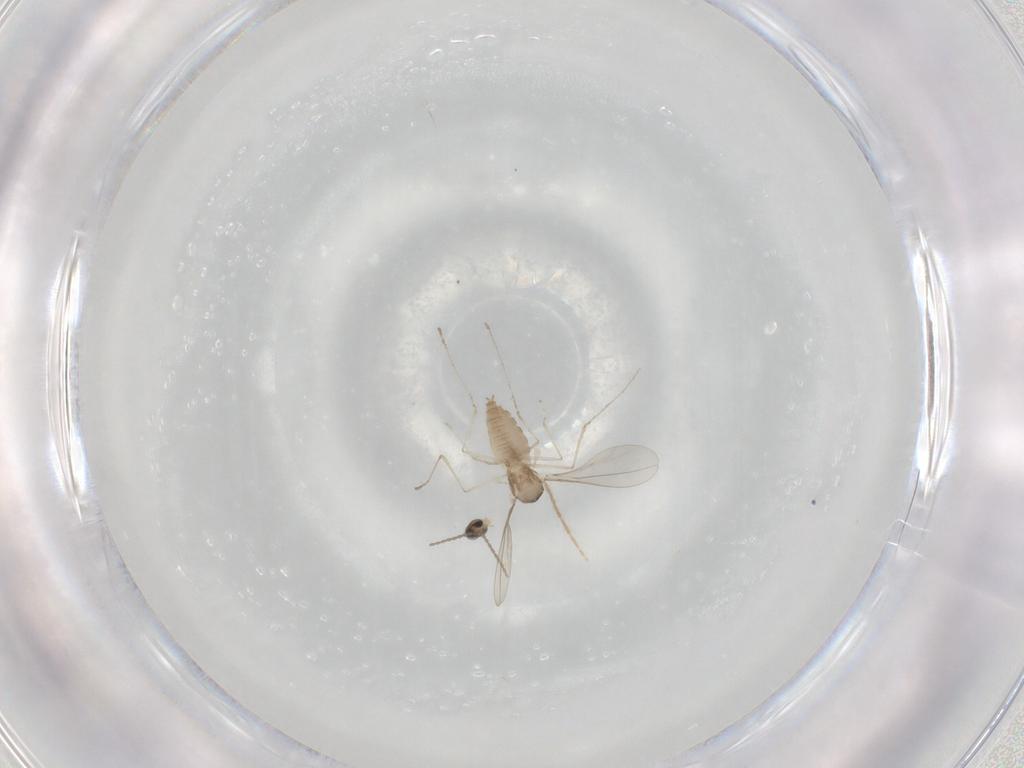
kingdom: Animalia
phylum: Arthropoda
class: Insecta
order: Diptera
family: Cecidomyiidae
